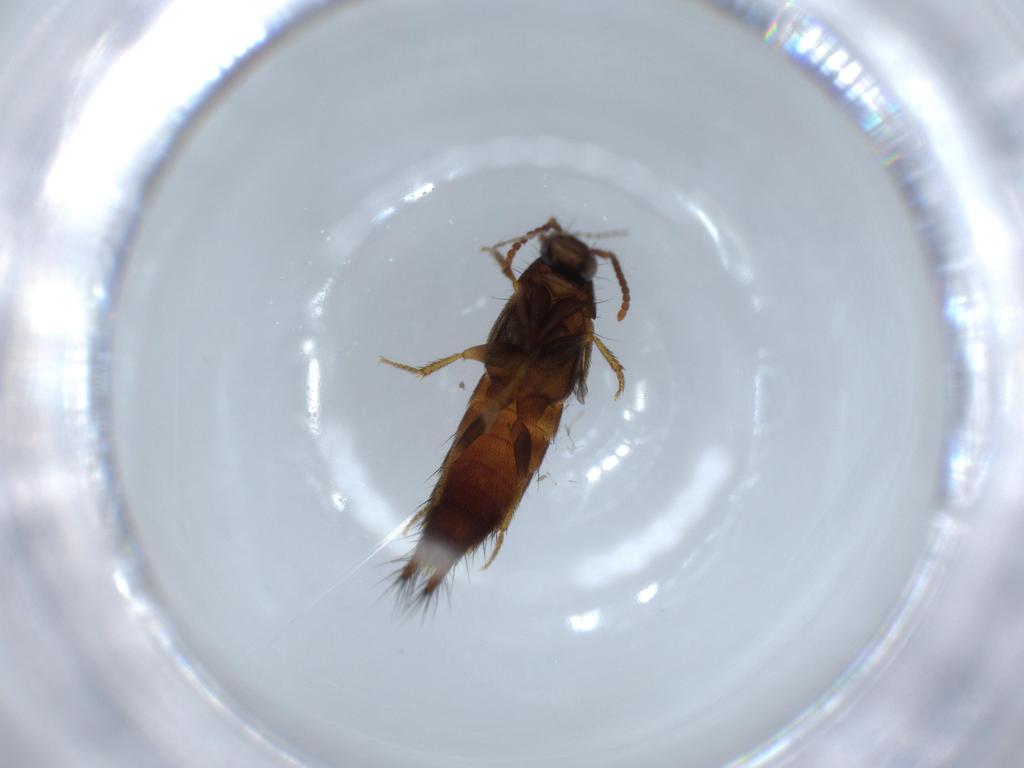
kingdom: Animalia
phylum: Arthropoda
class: Insecta
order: Coleoptera
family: Staphylinidae
